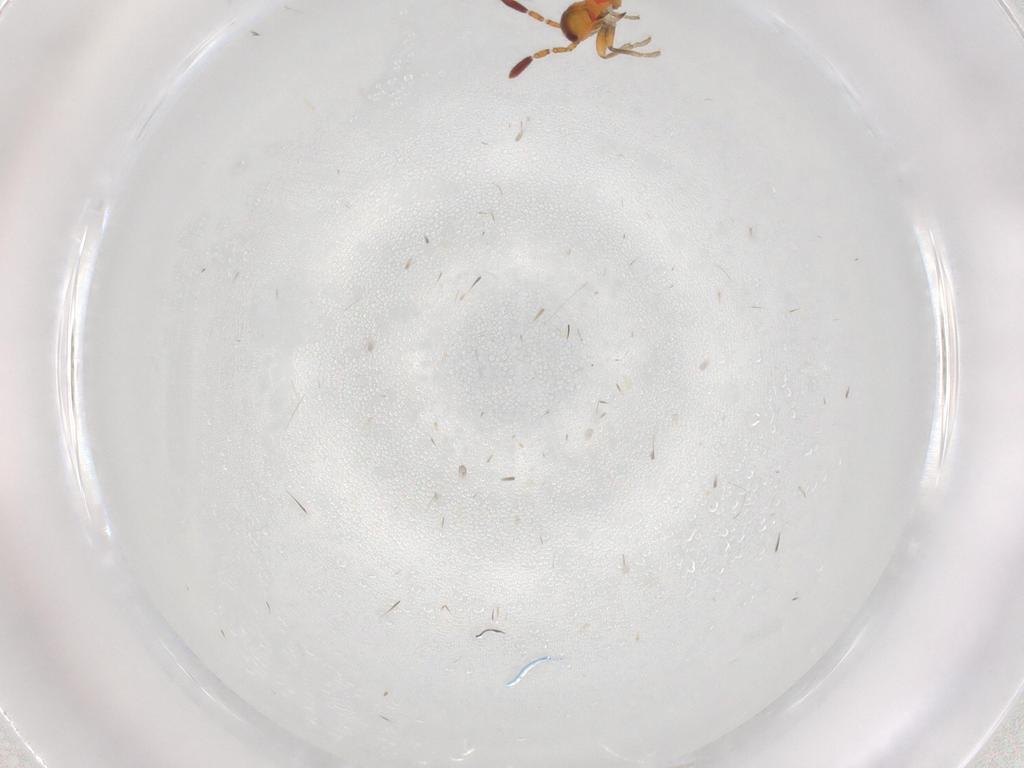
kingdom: Animalia
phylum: Arthropoda
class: Insecta
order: Hemiptera
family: Rhyparochromidae
